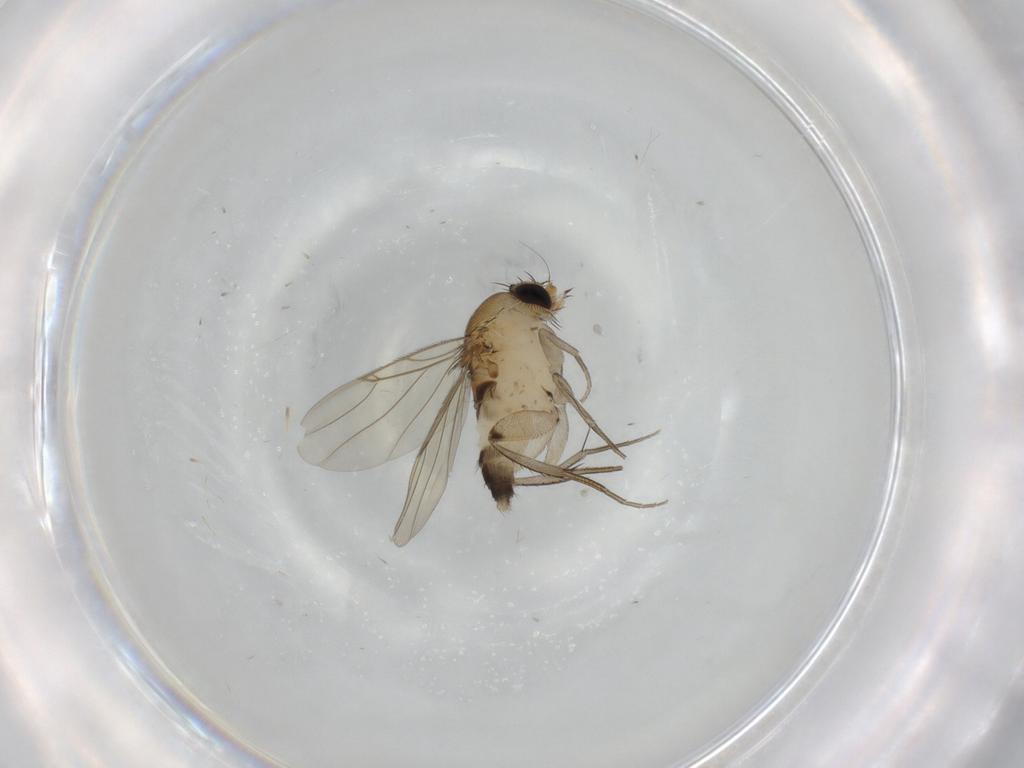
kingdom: Animalia
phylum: Arthropoda
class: Insecta
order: Diptera
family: Phoridae
